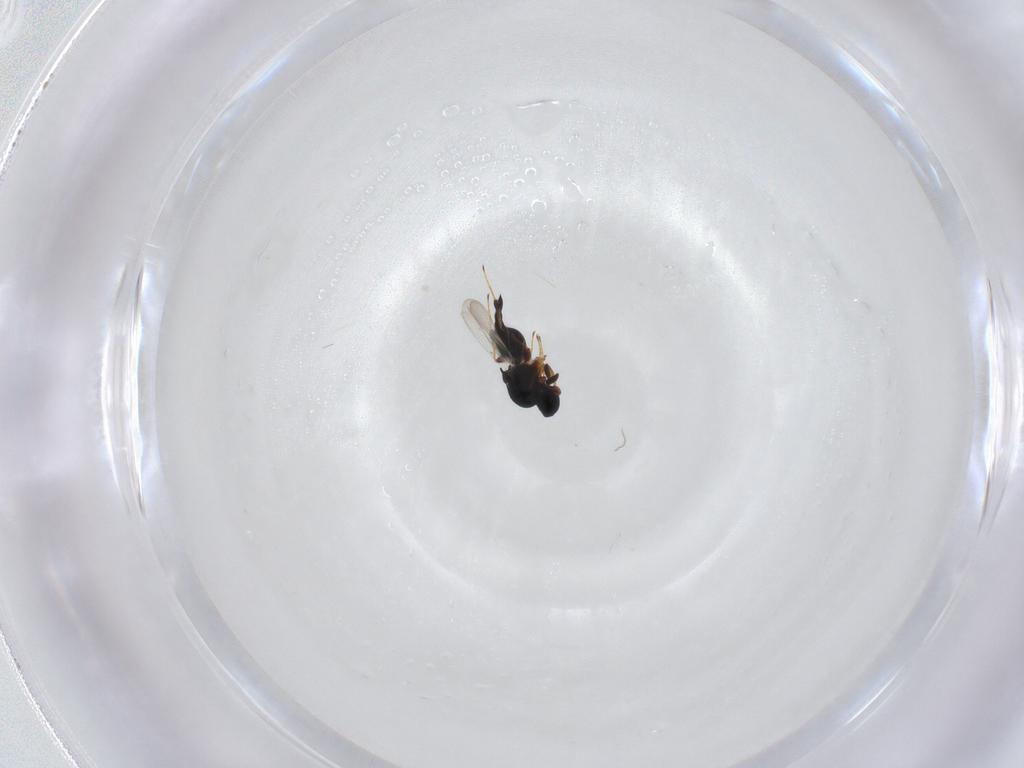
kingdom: Animalia
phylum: Arthropoda
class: Insecta
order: Hymenoptera
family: Platygastridae
